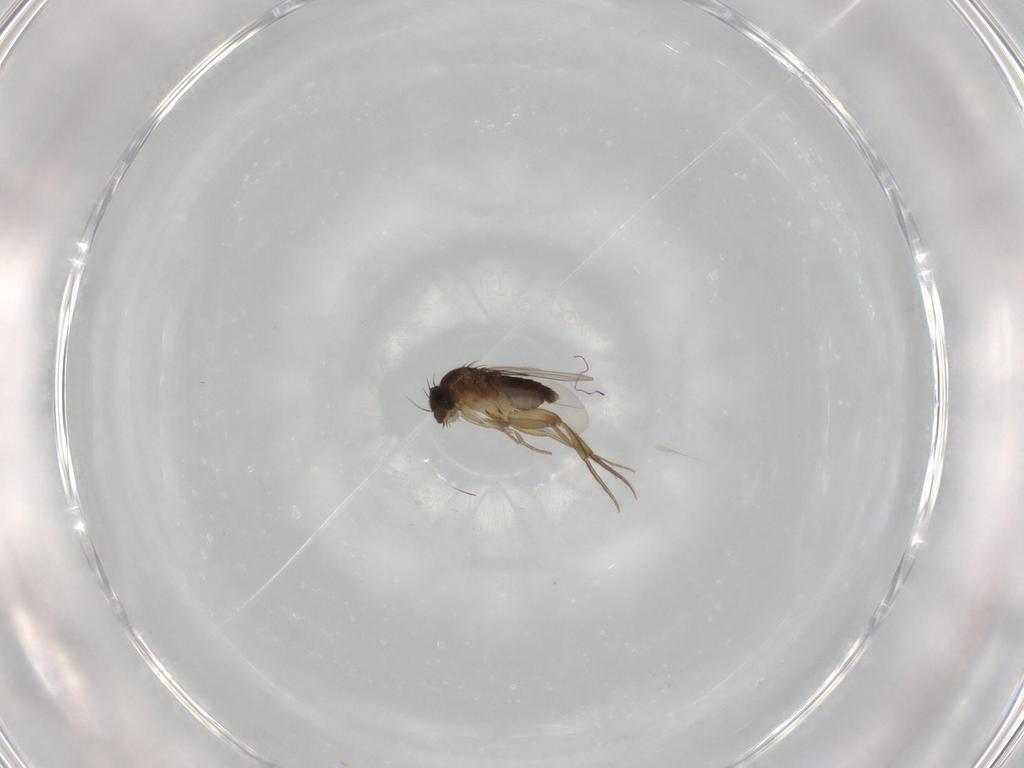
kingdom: Animalia
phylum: Arthropoda
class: Insecta
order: Diptera
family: Phoridae
